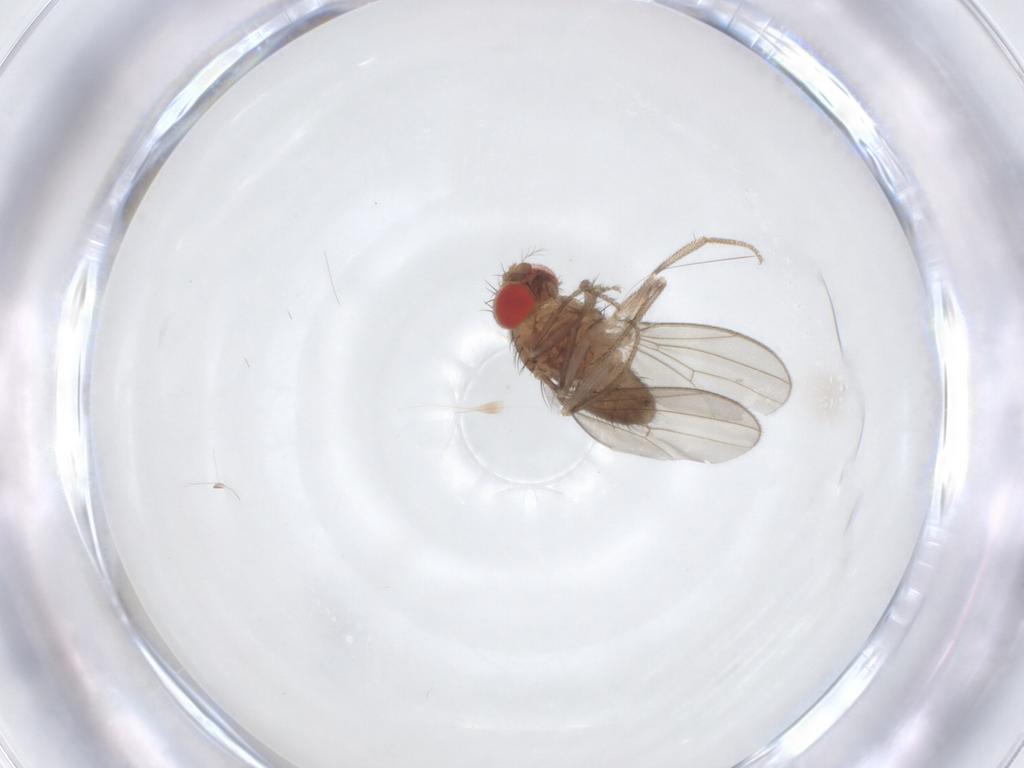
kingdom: Animalia
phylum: Arthropoda
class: Insecta
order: Diptera
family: Drosophilidae
